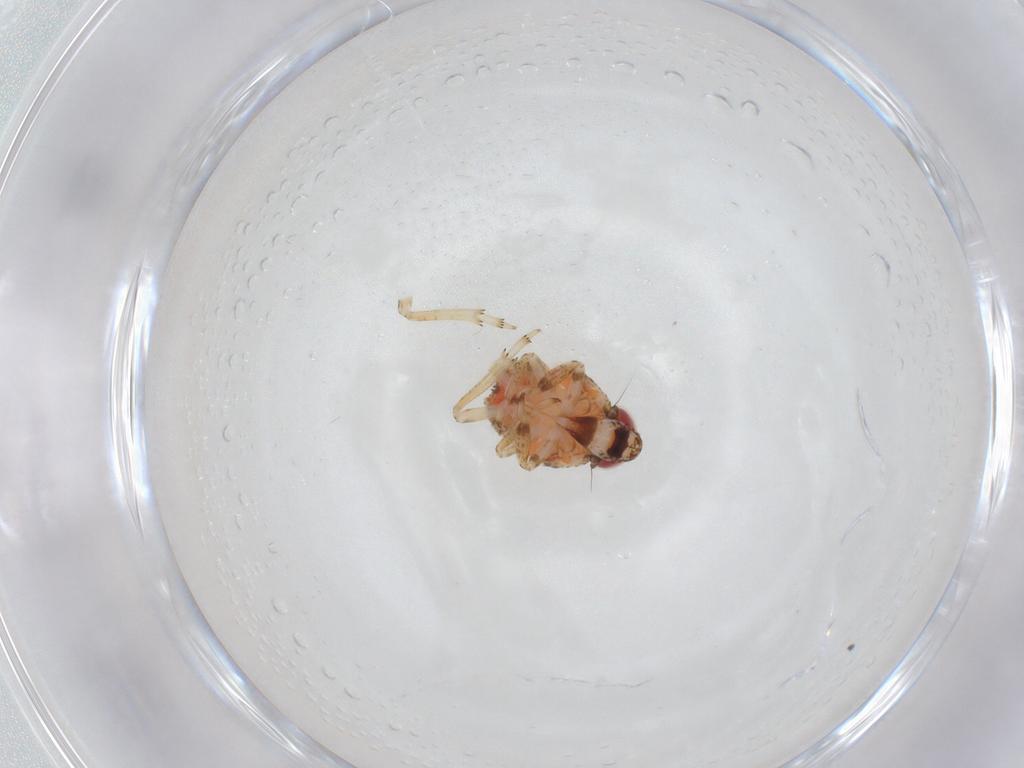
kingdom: Animalia
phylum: Arthropoda
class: Insecta
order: Hemiptera
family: Issidae
